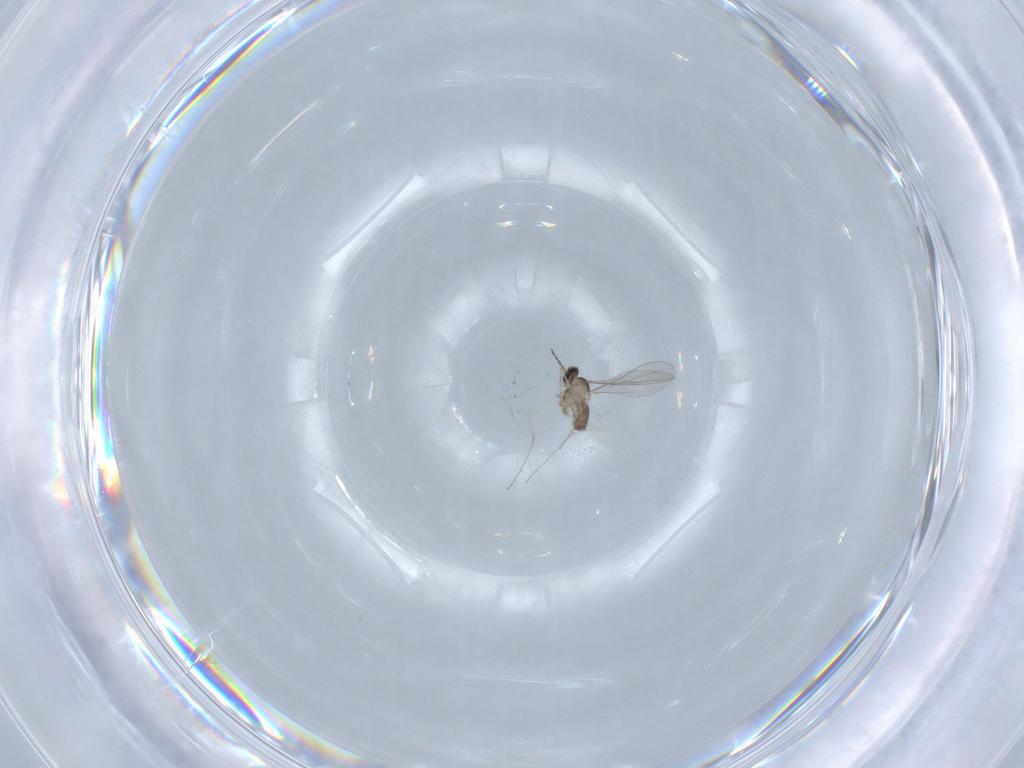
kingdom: Animalia
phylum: Arthropoda
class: Insecta
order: Diptera
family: Cecidomyiidae
